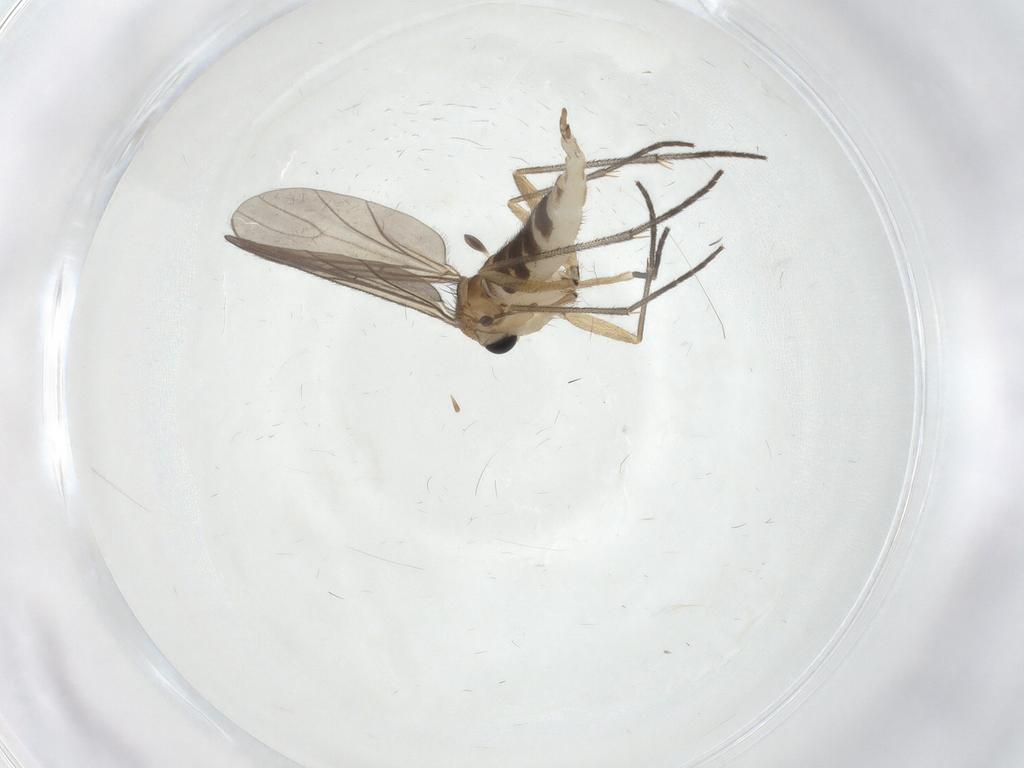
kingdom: Animalia
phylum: Arthropoda
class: Insecta
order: Diptera
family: Sciaridae
